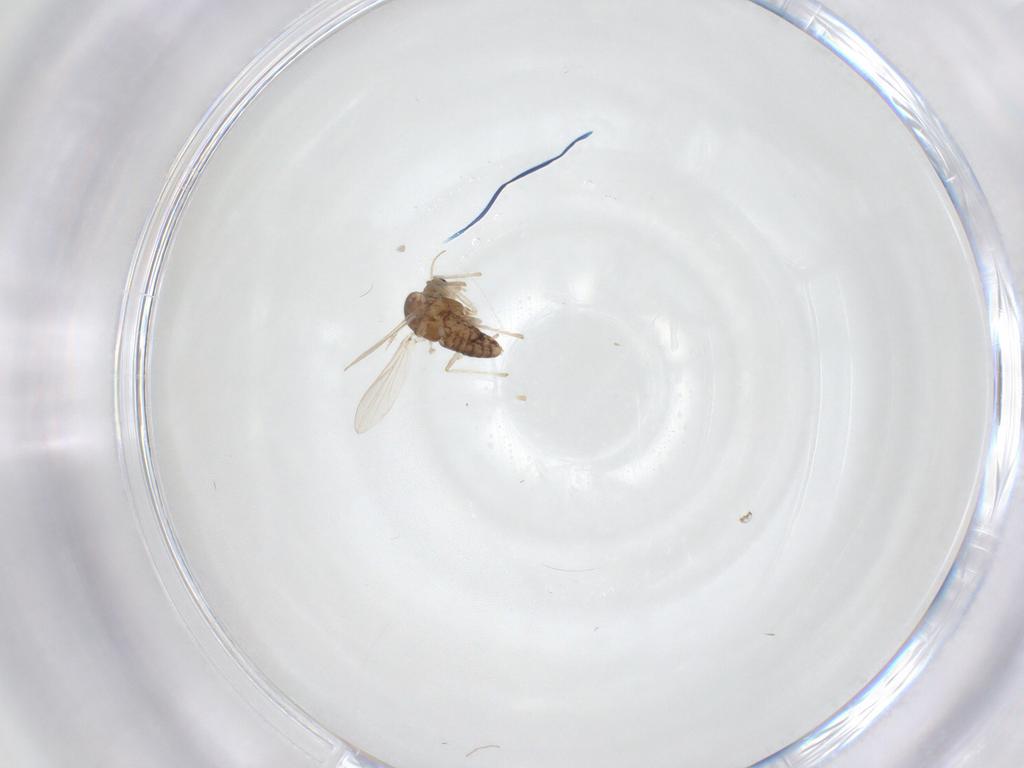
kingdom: Animalia
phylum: Arthropoda
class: Insecta
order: Diptera
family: Chironomidae
